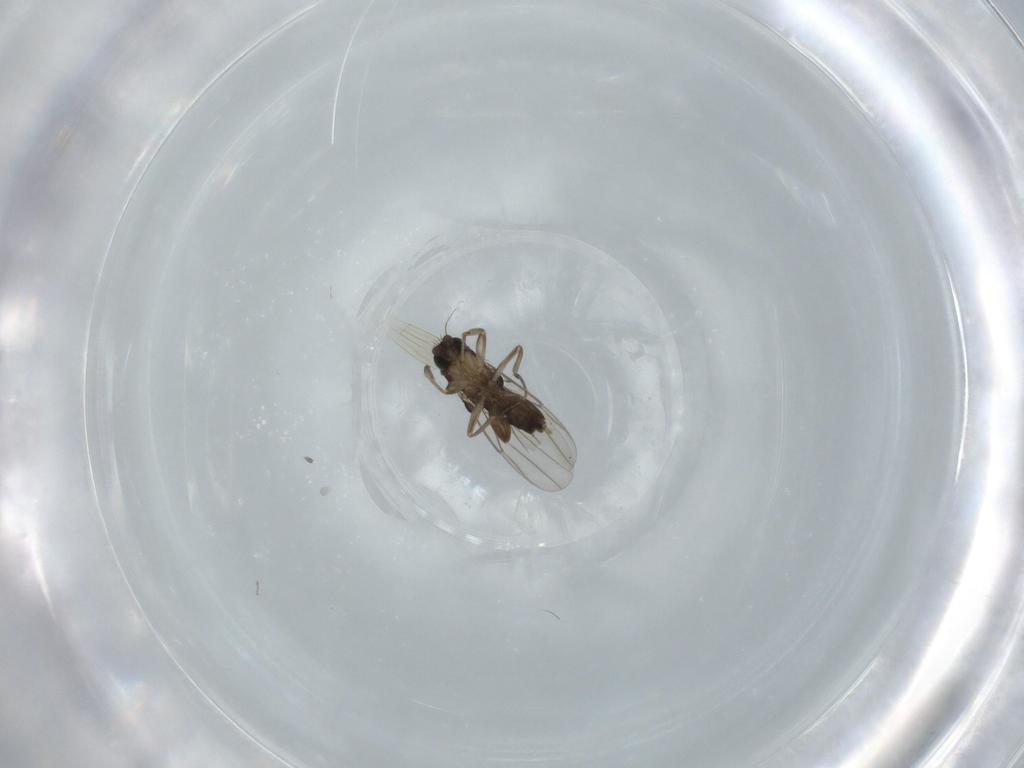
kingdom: Animalia
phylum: Arthropoda
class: Insecta
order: Diptera
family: Phoridae
